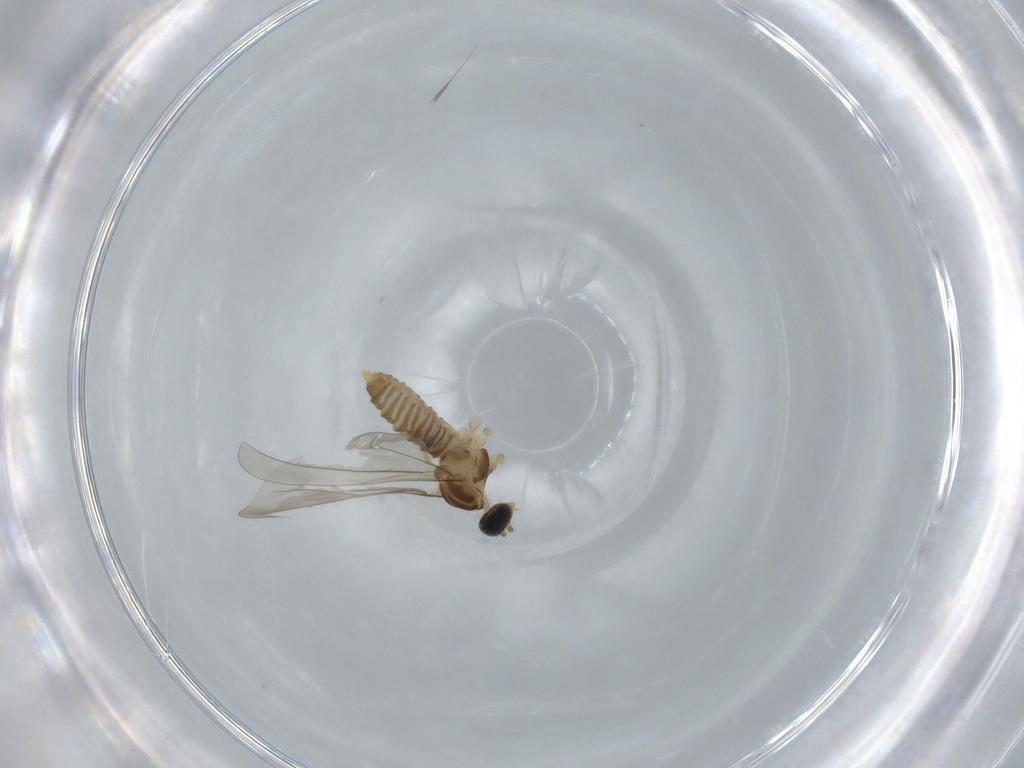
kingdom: Animalia
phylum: Arthropoda
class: Insecta
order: Diptera
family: Cecidomyiidae
